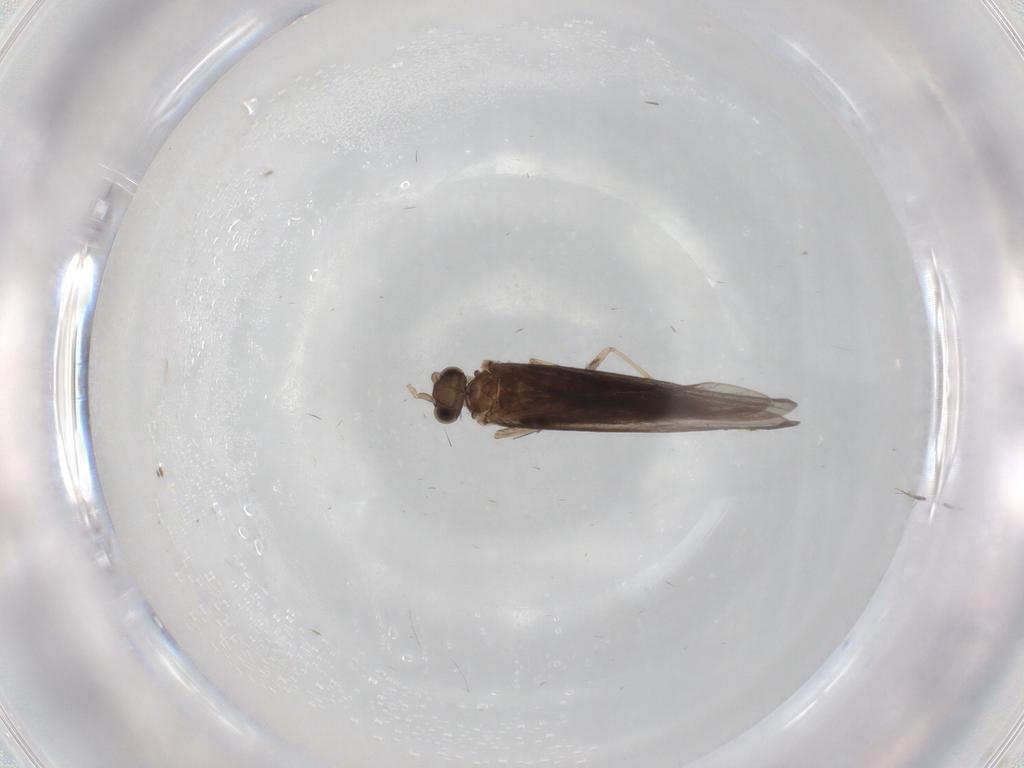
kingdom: Animalia
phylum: Arthropoda
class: Insecta
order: Trichoptera
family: Xiphocentronidae
